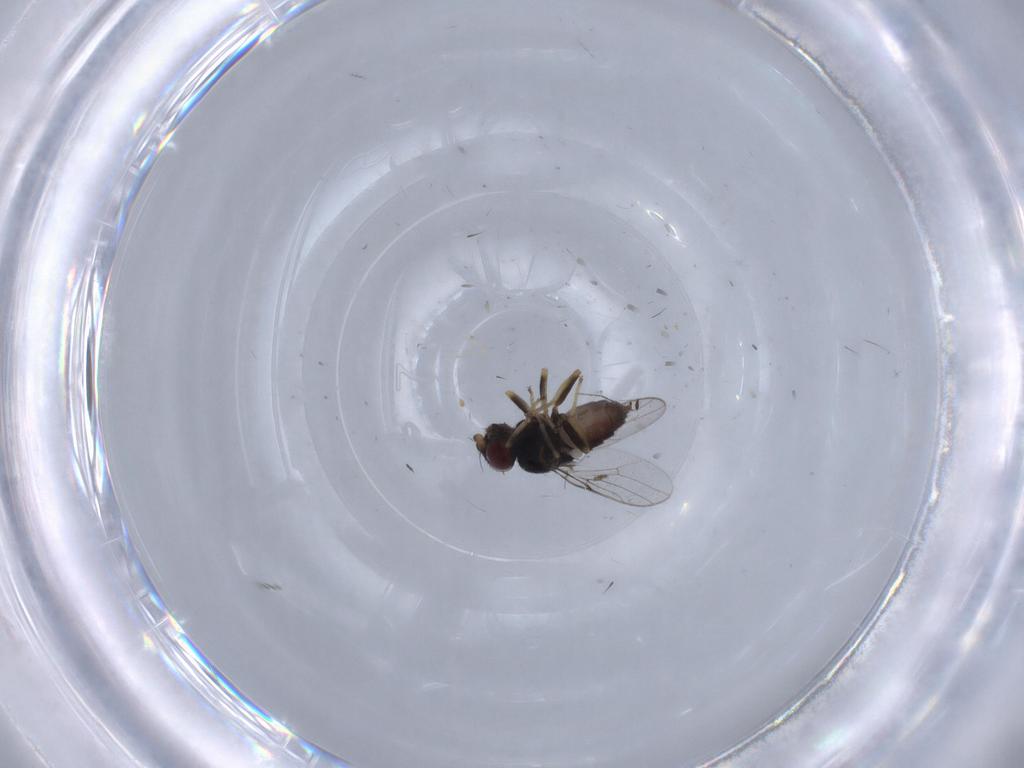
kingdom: Animalia
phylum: Arthropoda
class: Insecta
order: Diptera
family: Chloropidae
